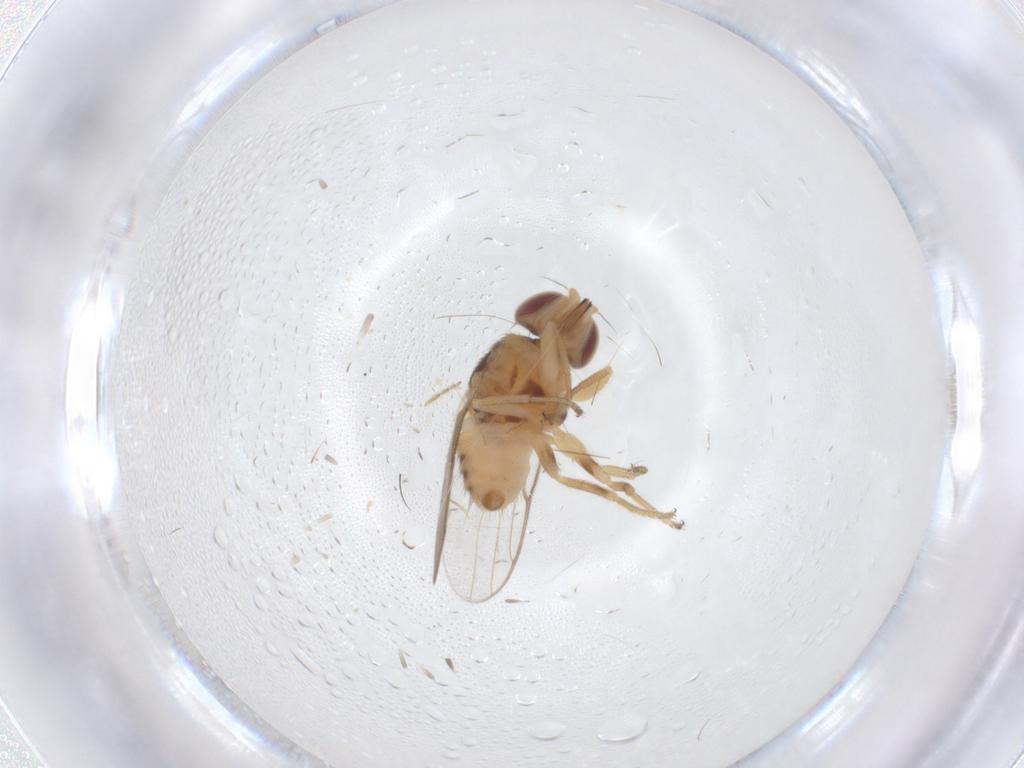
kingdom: Animalia
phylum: Arthropoda
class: Insecta
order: Diptera
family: Chloropidae
